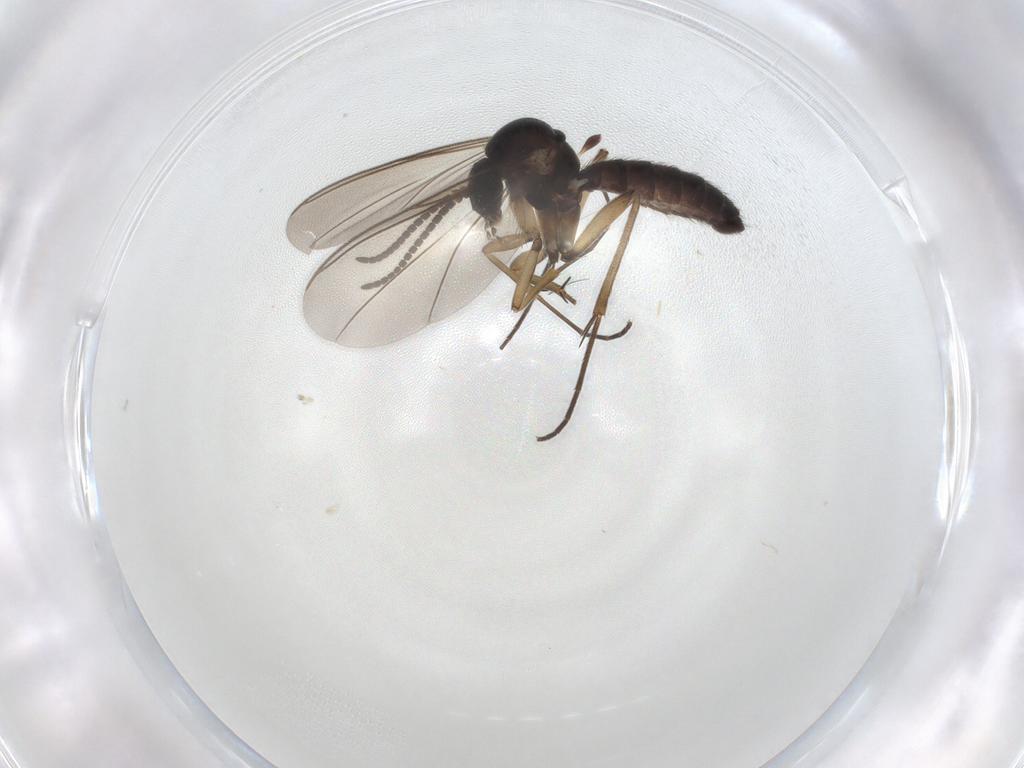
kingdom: Animalia
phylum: Arthropoda
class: Insecta
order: Diptera
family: Mycetophilidae
